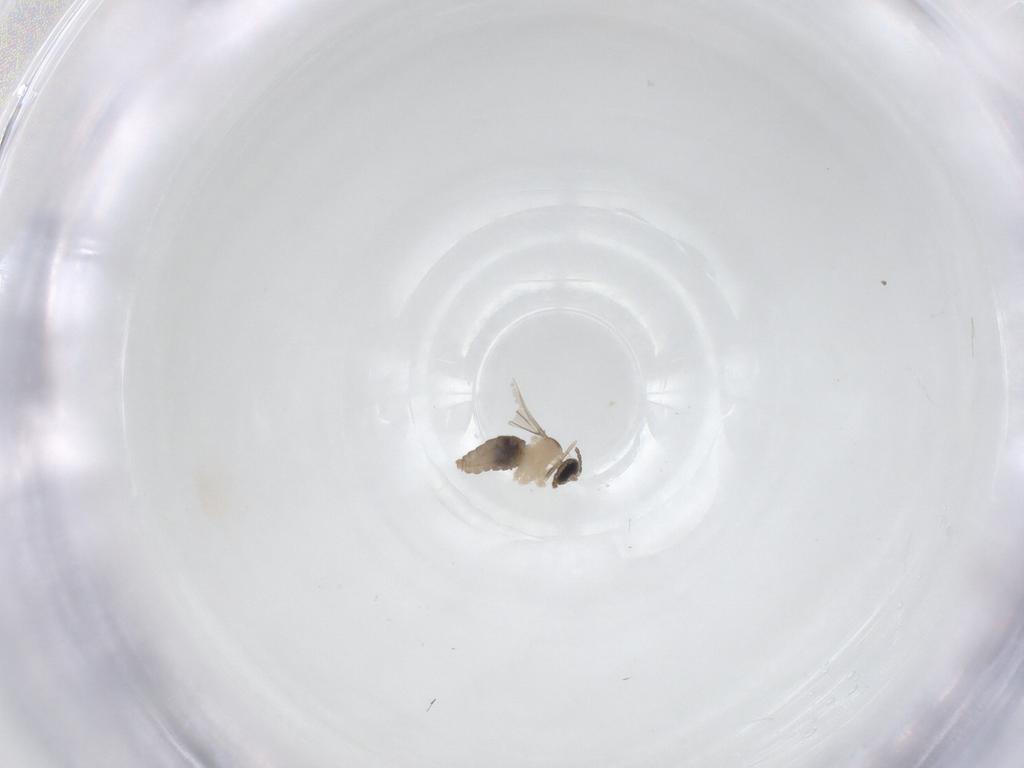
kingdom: Animalia
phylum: Arthropoda
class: Insecta
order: Diptera
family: Cecidomyiidae
